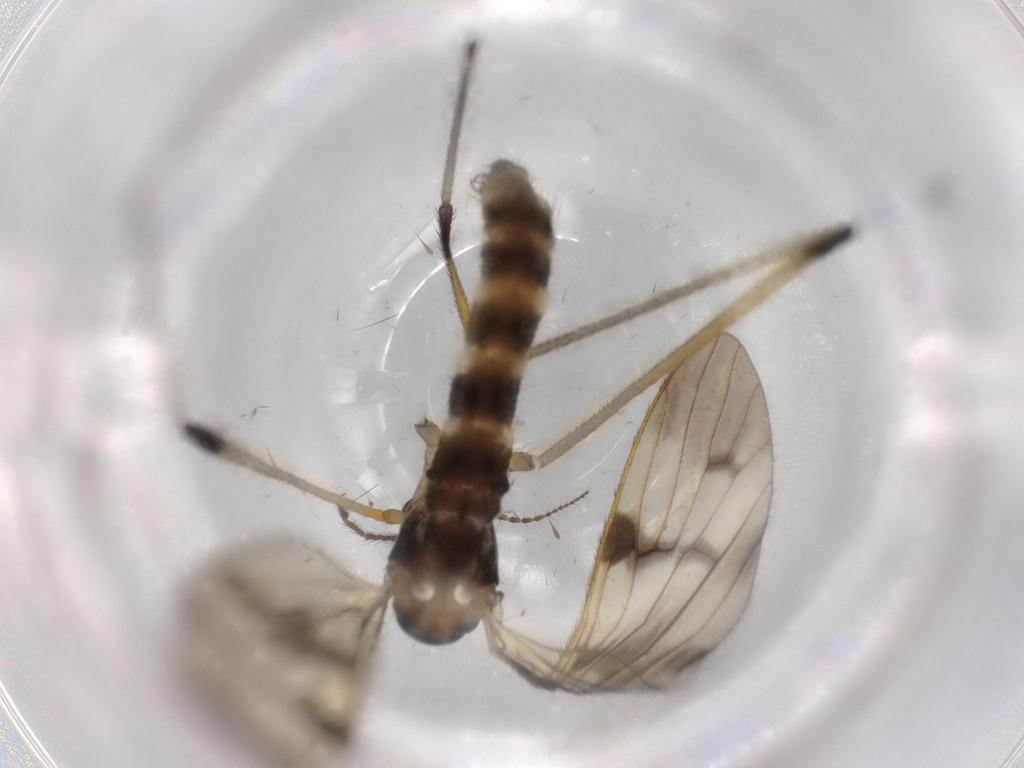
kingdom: Animalia
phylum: Arthropoda
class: Insecta
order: Diptera
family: Limoniidae
